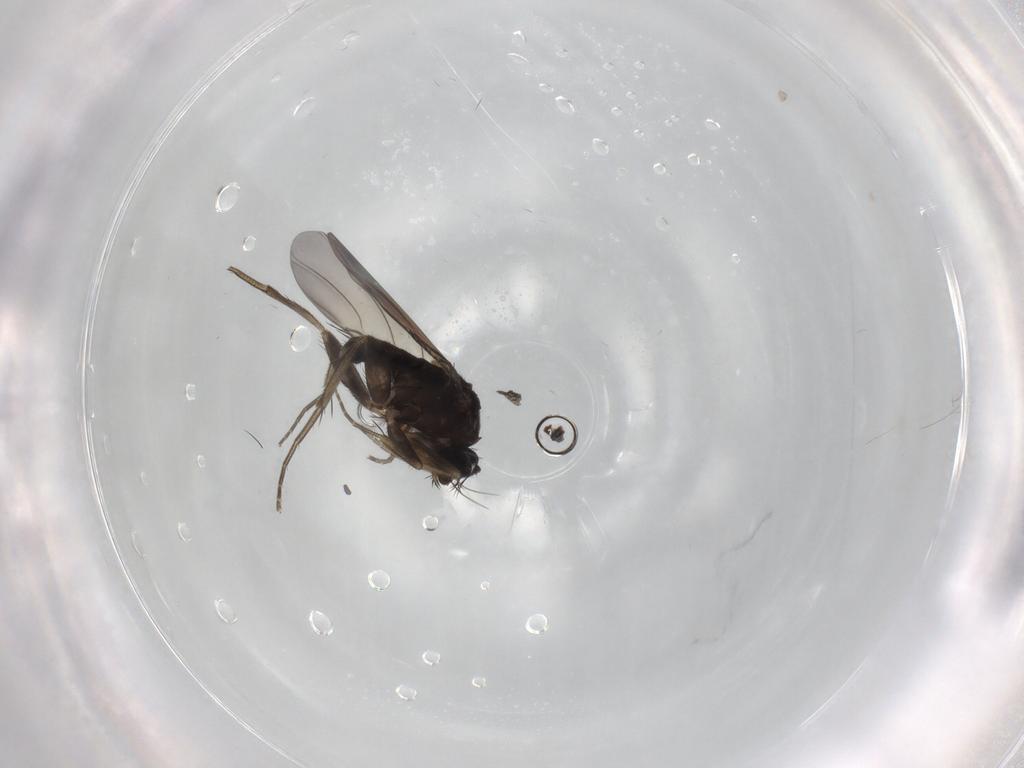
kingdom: Animalia
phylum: Arthropoda
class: Insecta
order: Diptera
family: Phoridae
